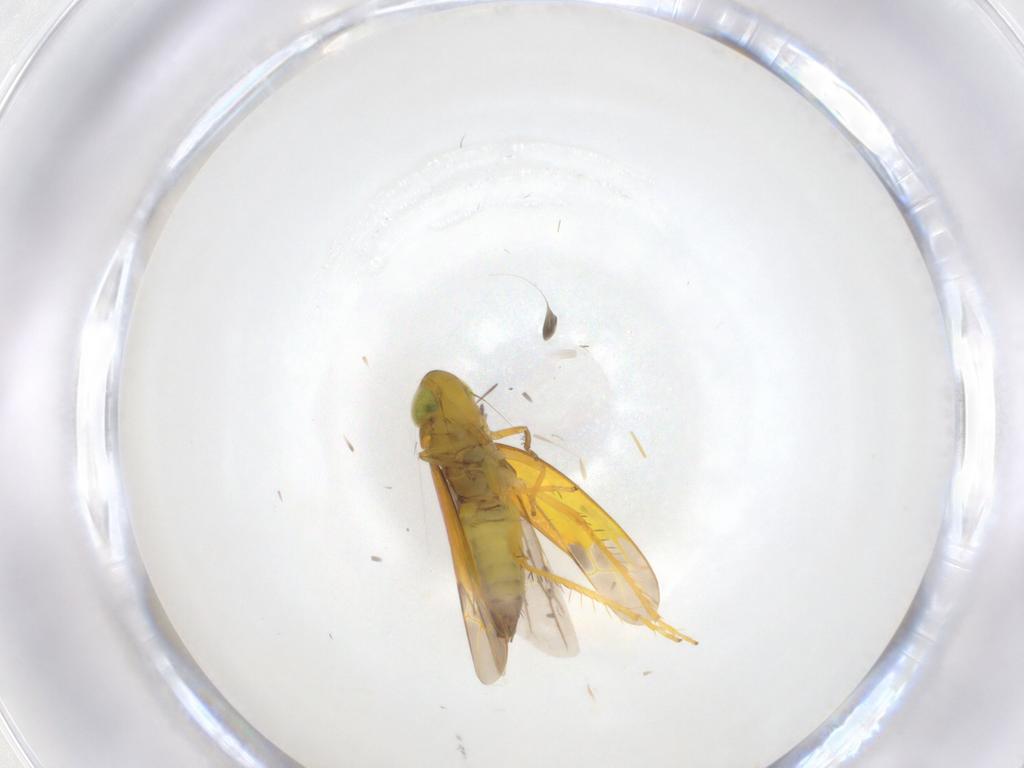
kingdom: Animalia
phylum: Arthropoda
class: Insecta
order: Hemiptera
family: Cicadellidae
